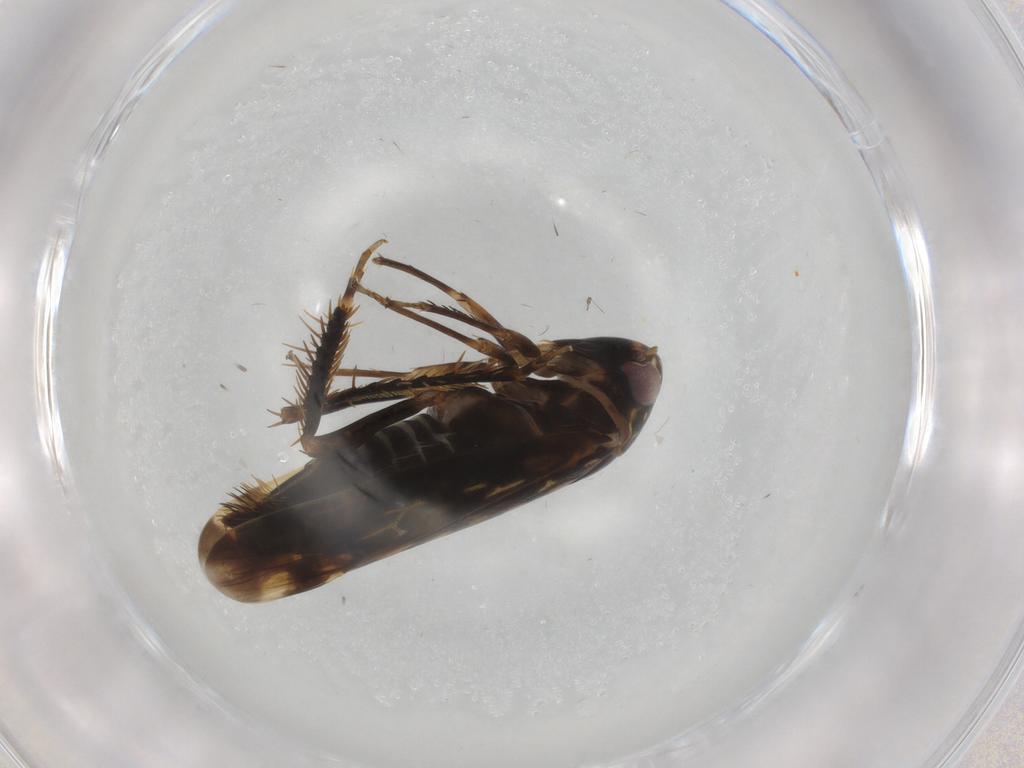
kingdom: Animalia
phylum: Arthropoda
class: Insecta
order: Hemiptera
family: Cicadellidae
